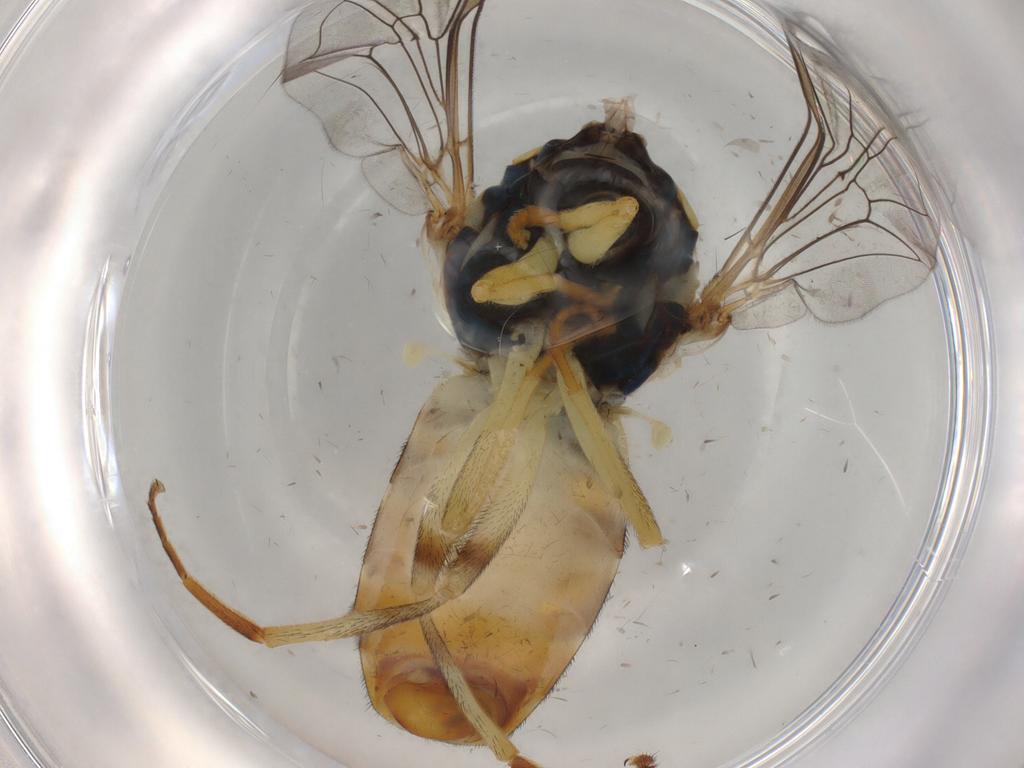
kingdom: Animalia
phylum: Arthropoda
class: Insecta
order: Diptera
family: Syrphidae
